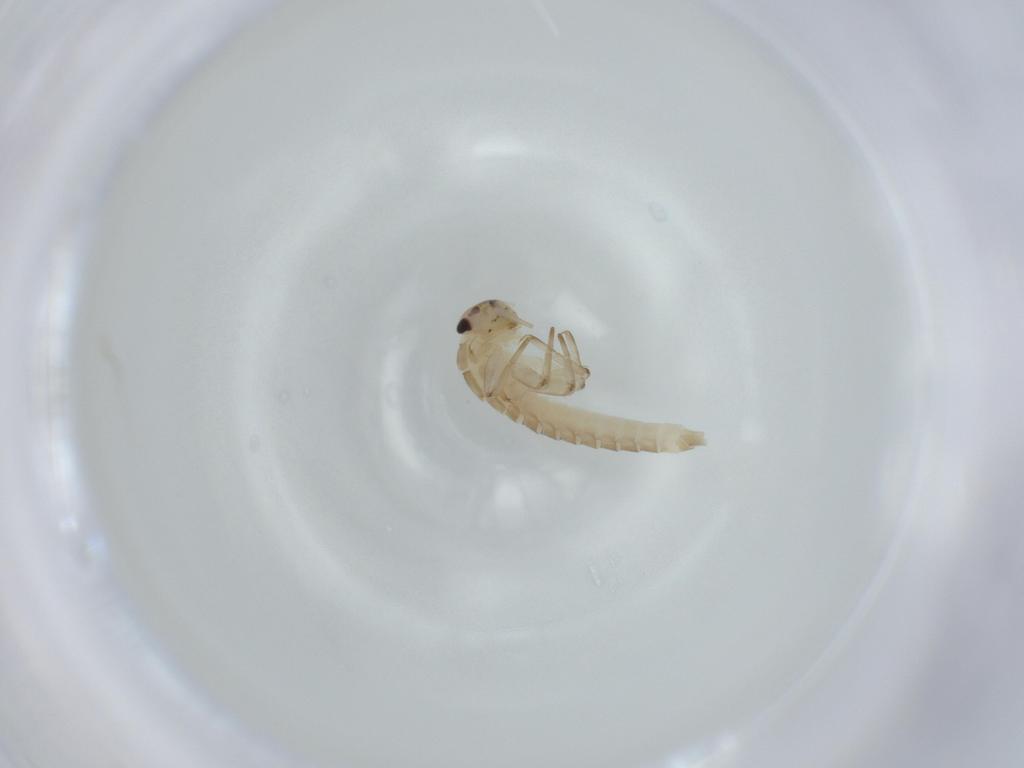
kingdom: Animalia
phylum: Arthropoda
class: Insecta
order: Ephemeroptera
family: Baetidae
